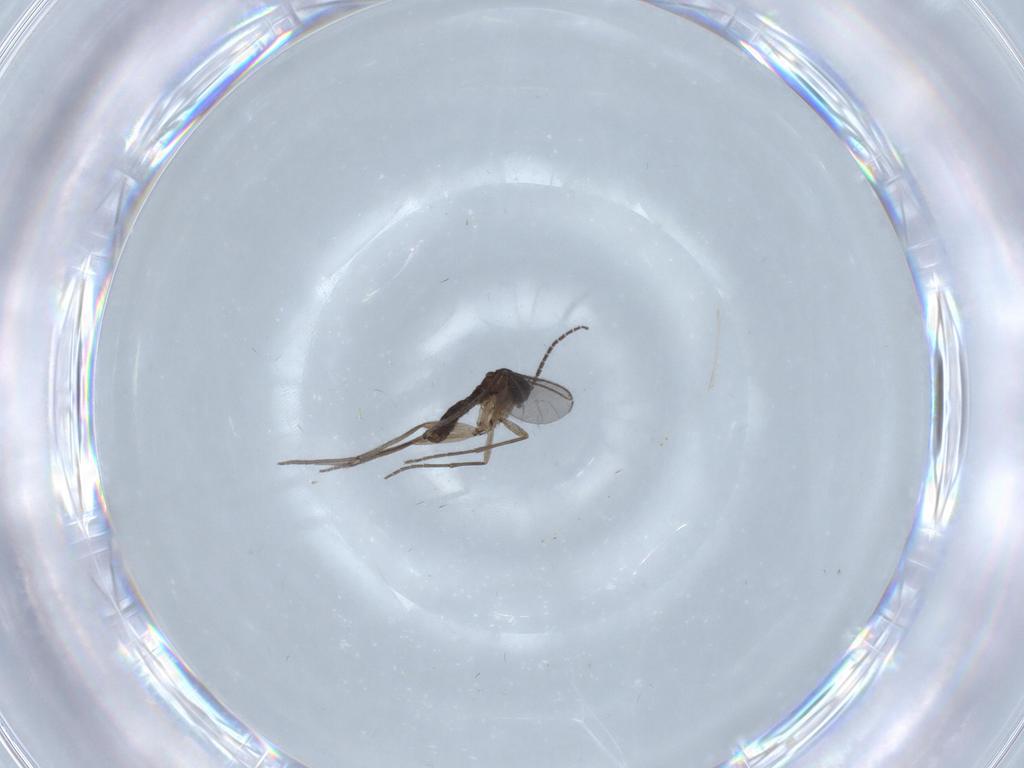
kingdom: Animalia
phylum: Arthropoda
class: Insecta
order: Diptera
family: Cecidomyiidae
